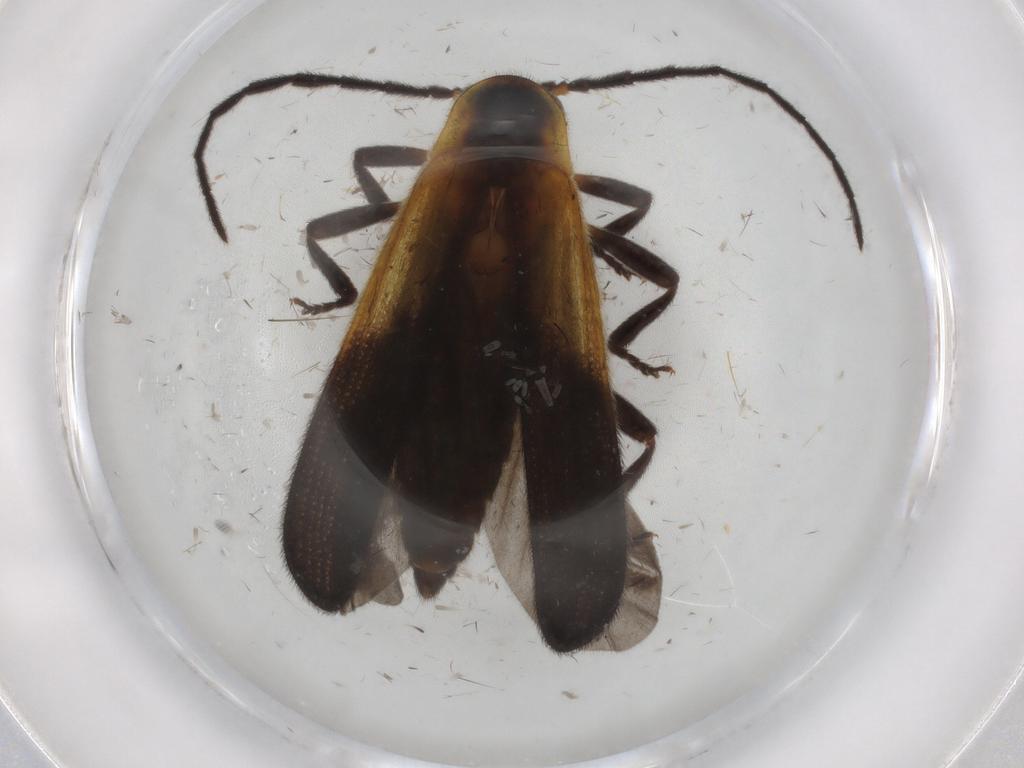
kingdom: Animalia
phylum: Arthropoda
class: Insecta
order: Coleoptera
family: Lycidae
